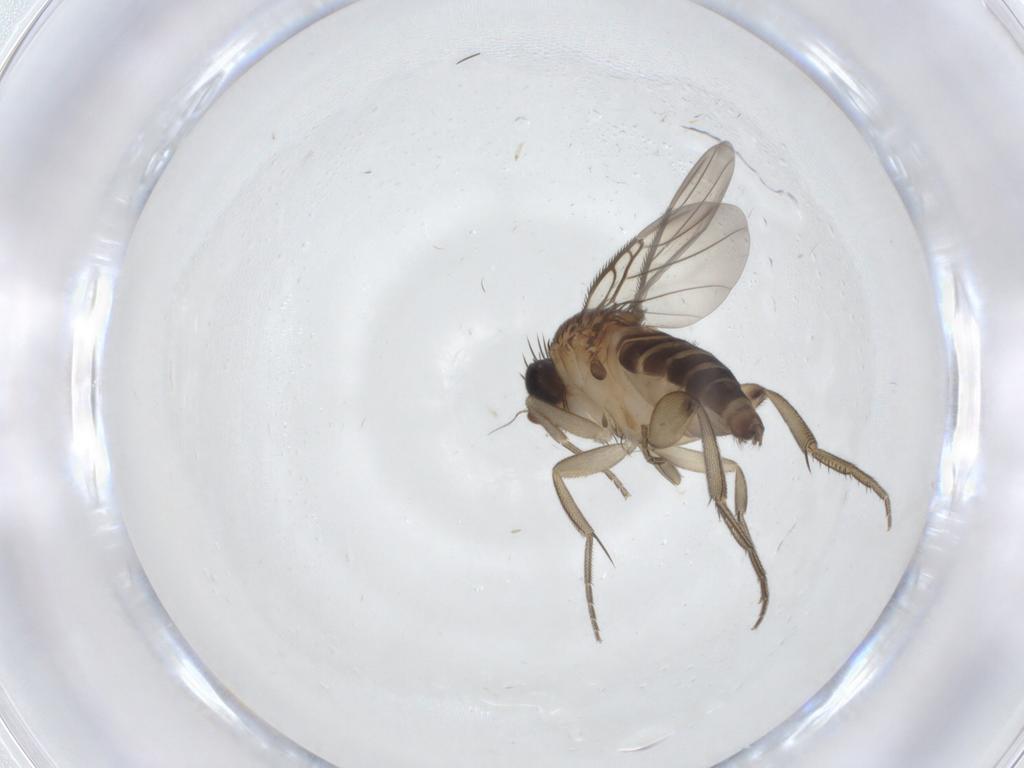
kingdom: Animalia
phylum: Arthropoda
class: Insecta
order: Diptera
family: Phoridae
